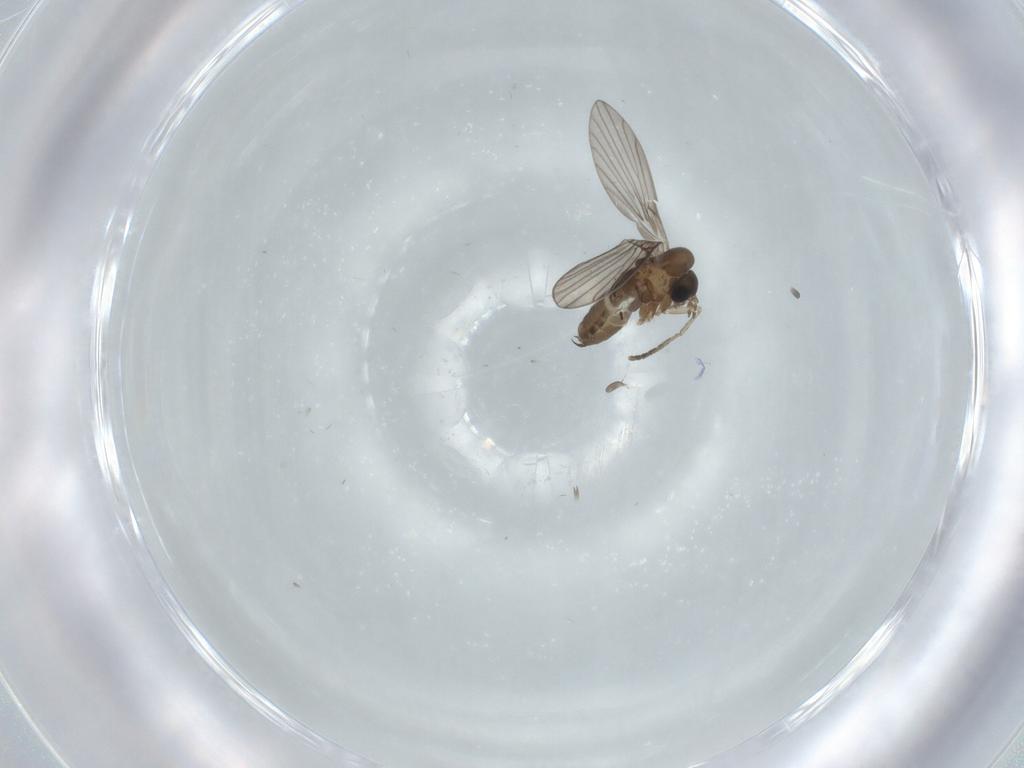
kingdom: Animalia
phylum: Arthropoda
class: Insecta
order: Diptera
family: Psychodidae
